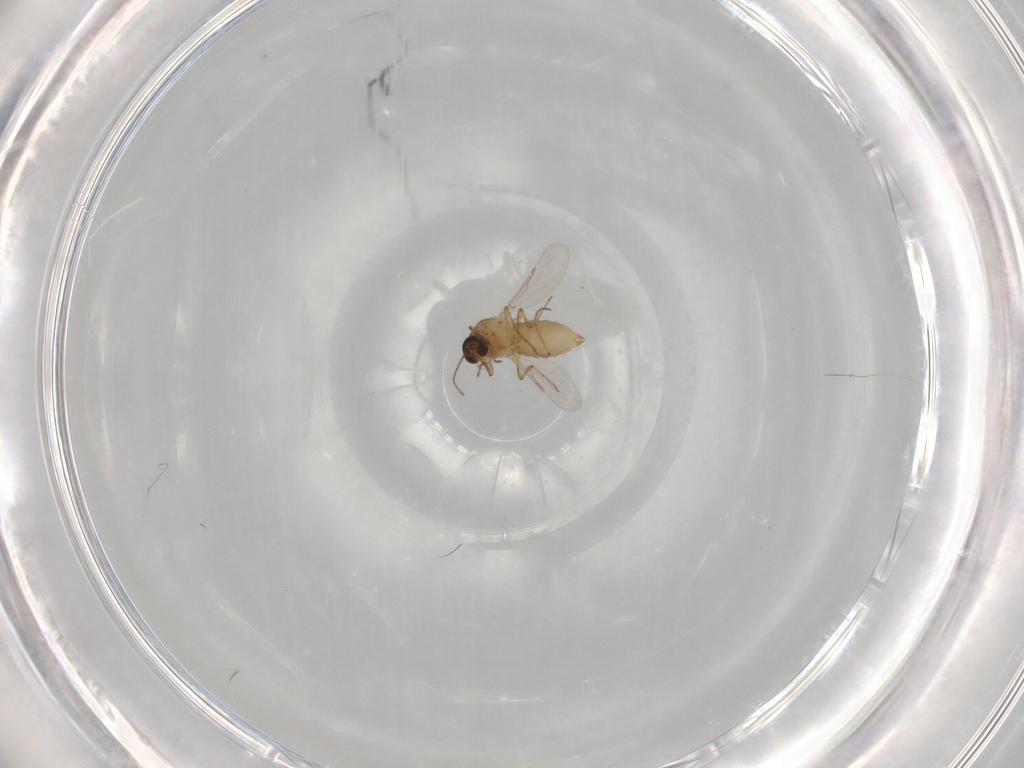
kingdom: Animalia
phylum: Arthropoda
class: Insecta
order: Diptera
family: Ceratopogonidae
